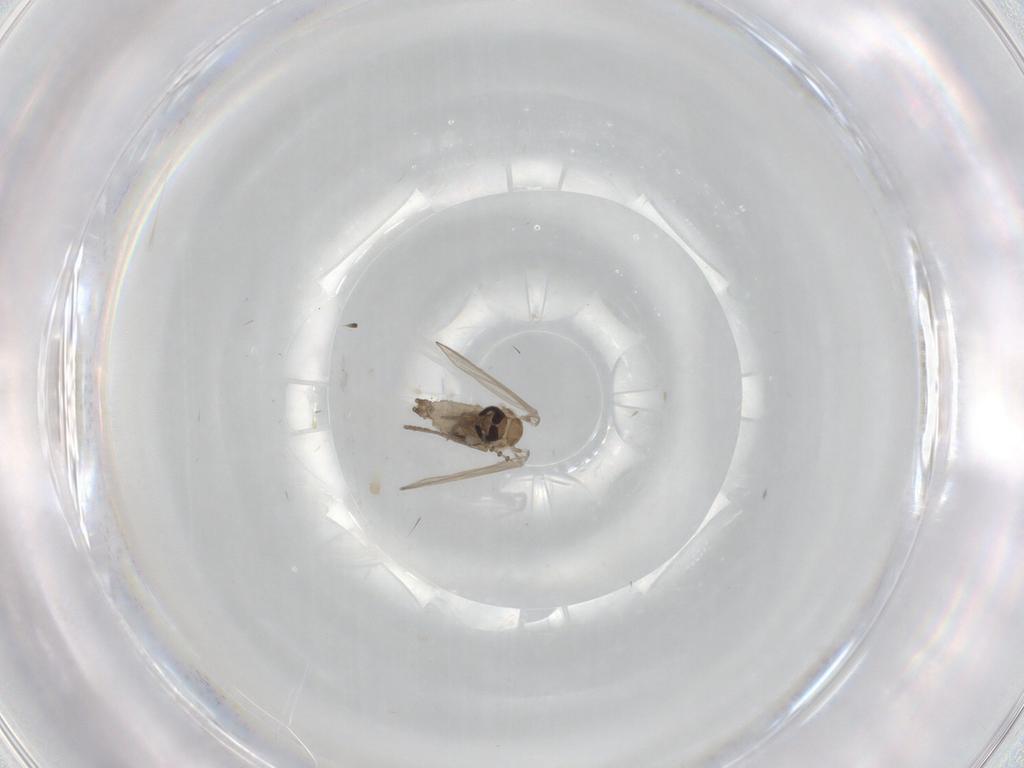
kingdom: Animalia
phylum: Arthropoda
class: Insecta
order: Diptera
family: Psychodidae
